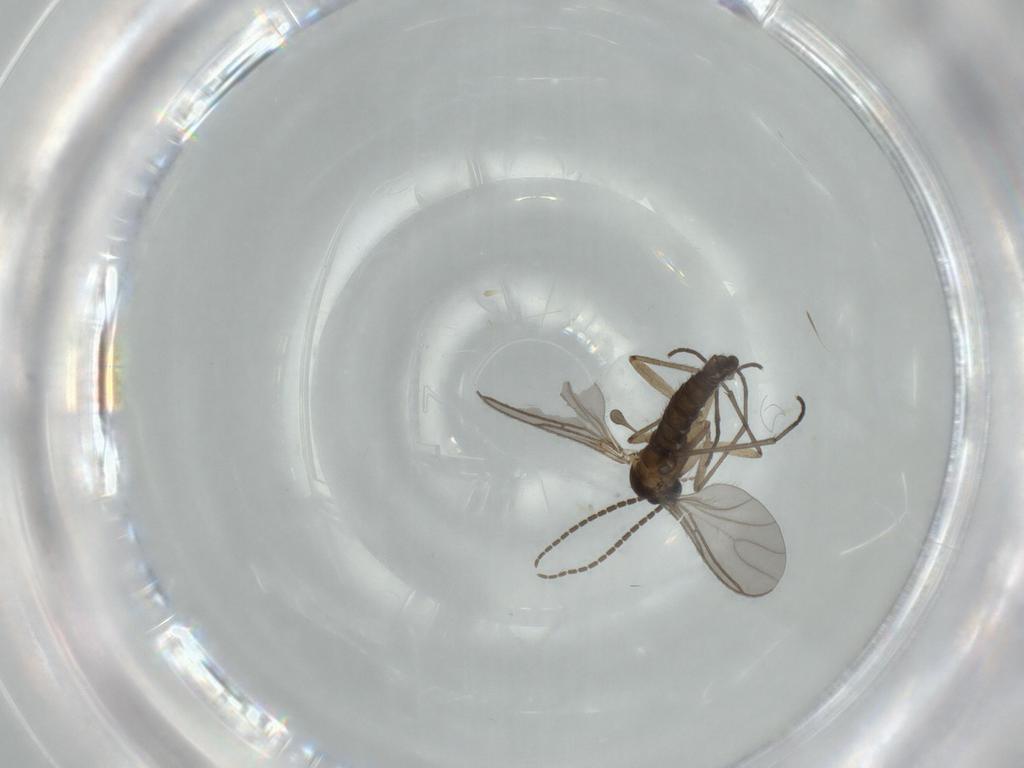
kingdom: Animalia
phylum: Arthropoda
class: Insecta
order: Diptera
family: Sciaridae
